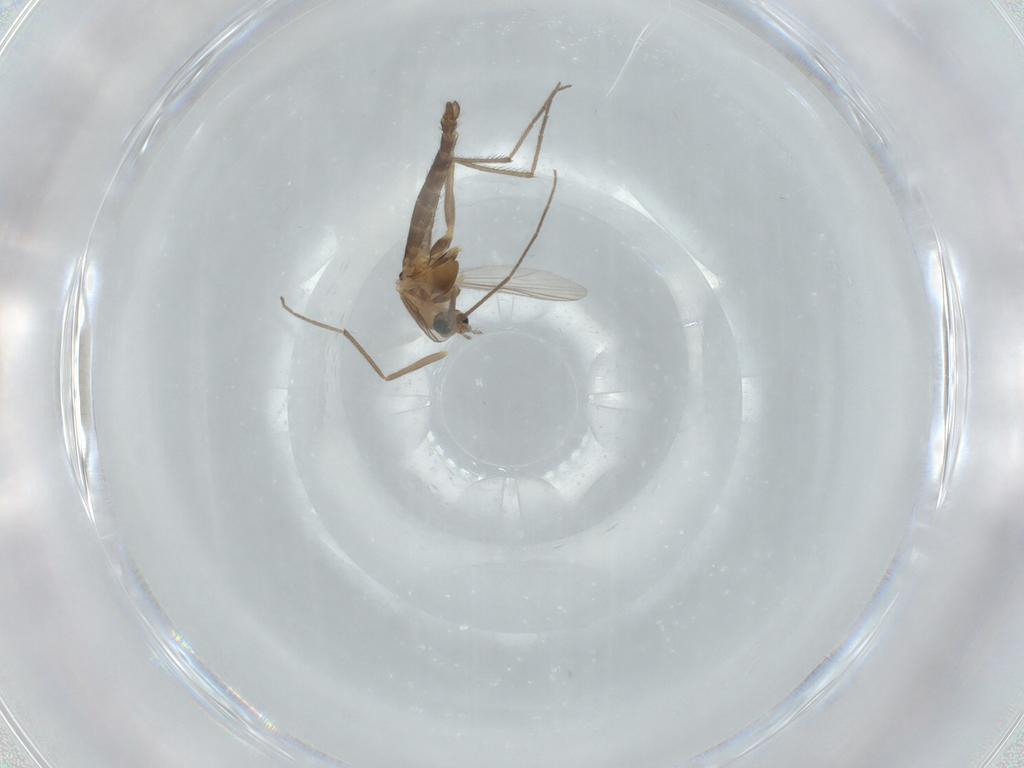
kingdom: Animalia
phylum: Arthropoda
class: Insecta
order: Diptera
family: Chironomidae
